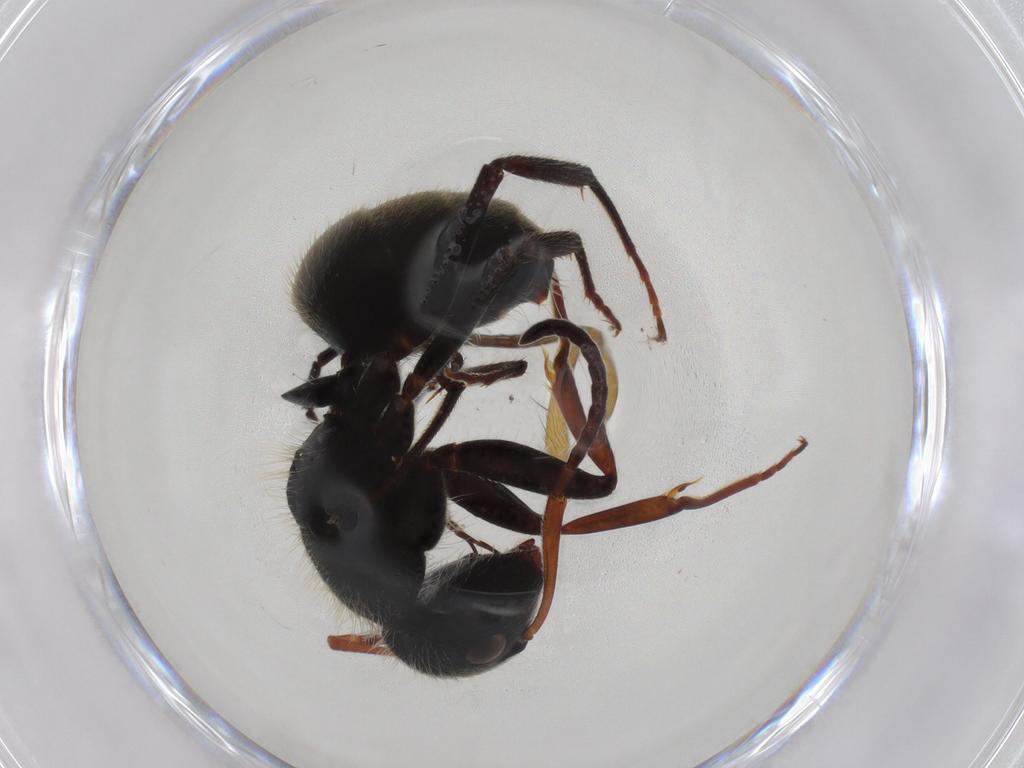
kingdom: Animalia
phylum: Arthropoda
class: Insecta
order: Hymenoptera
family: Formicidae
